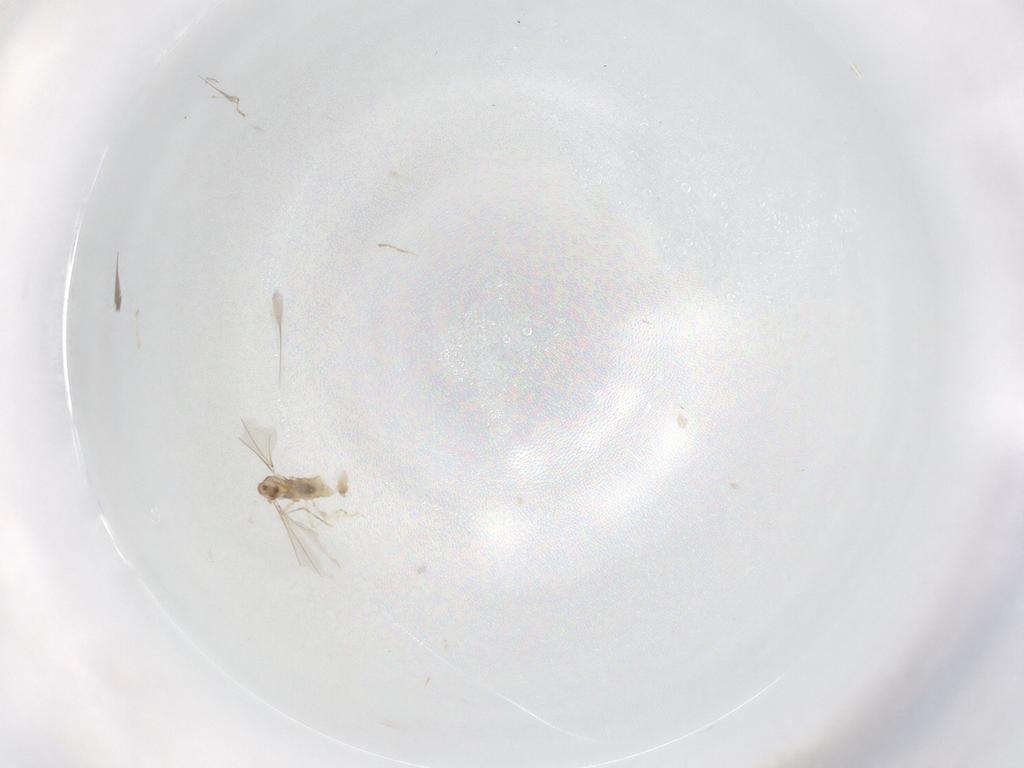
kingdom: Animalia
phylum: Arthropoda
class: Insecta
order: Diptera
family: Cecidomyiidae
